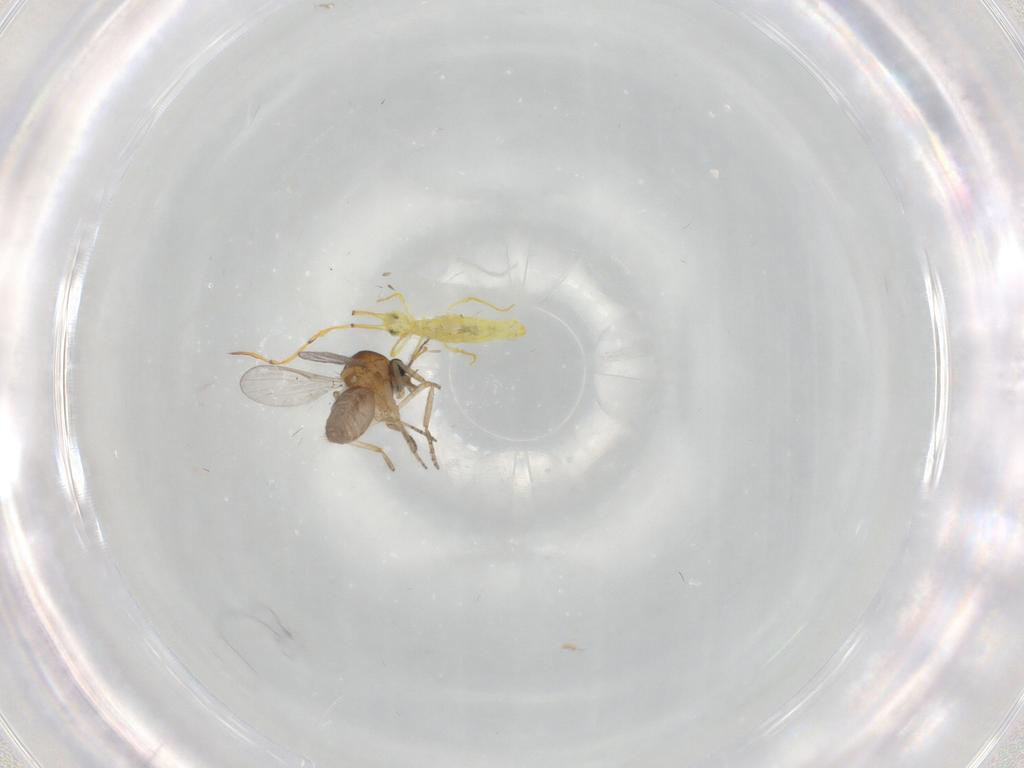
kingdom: Animalia
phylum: Arthropoda
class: Collembola
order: Entomobryomorpha
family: Entomobryidae
